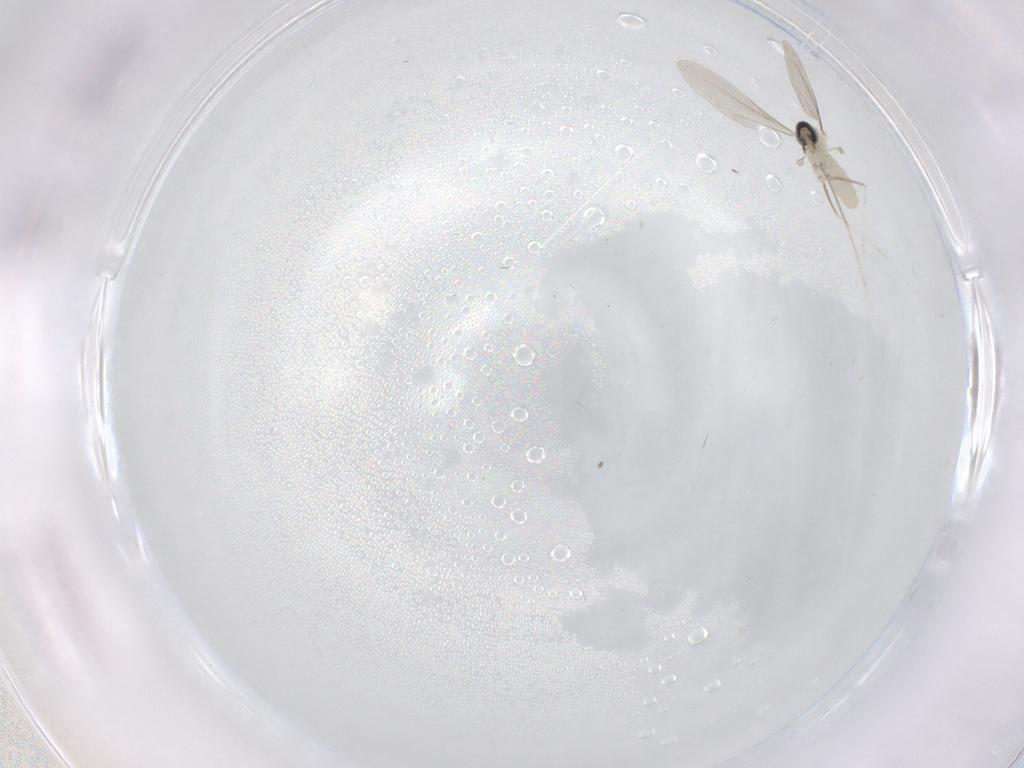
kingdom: Animalia
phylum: Arthropoda
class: Insecta
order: Diptera
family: Cecidomyiidae
